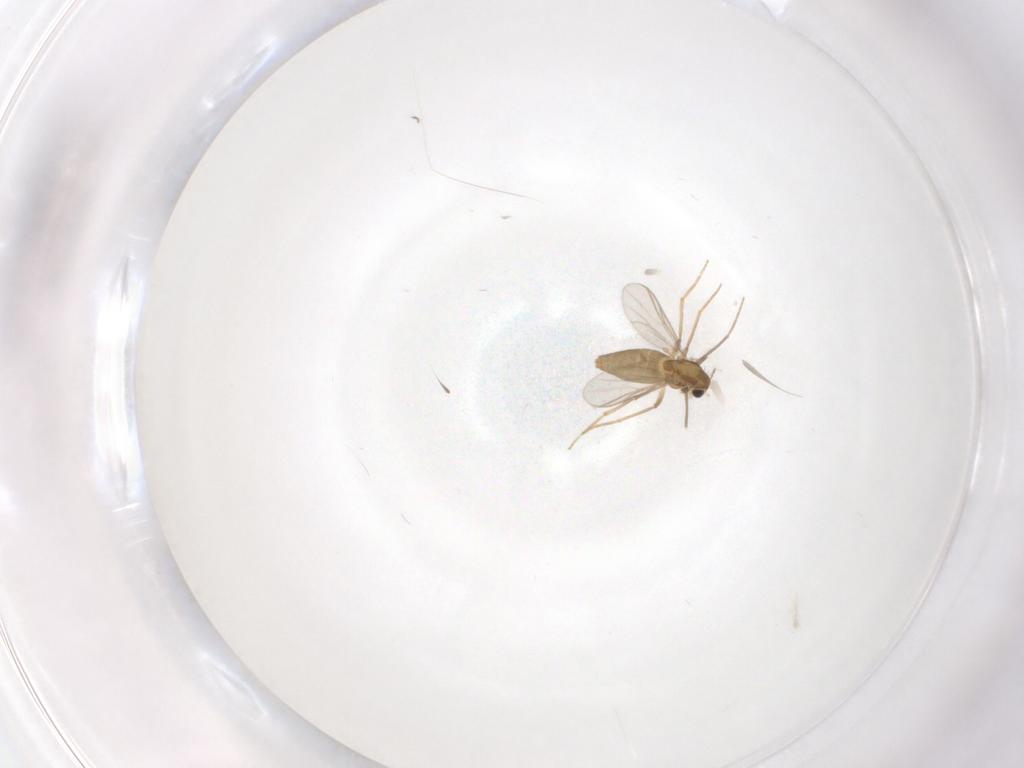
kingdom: Animalia
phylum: Arthropoda
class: Insecta
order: Diptera
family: Chironomidae
